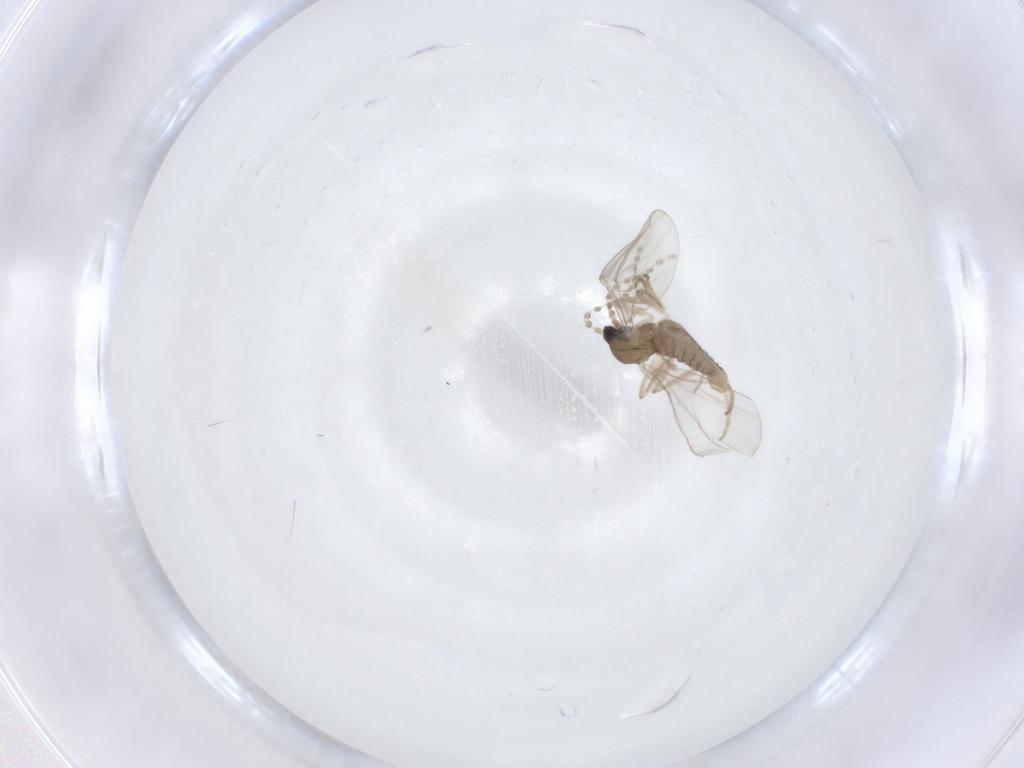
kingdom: Animalia
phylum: Arthropoda
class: Insecta
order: Diptera
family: Cecidomyiidae
